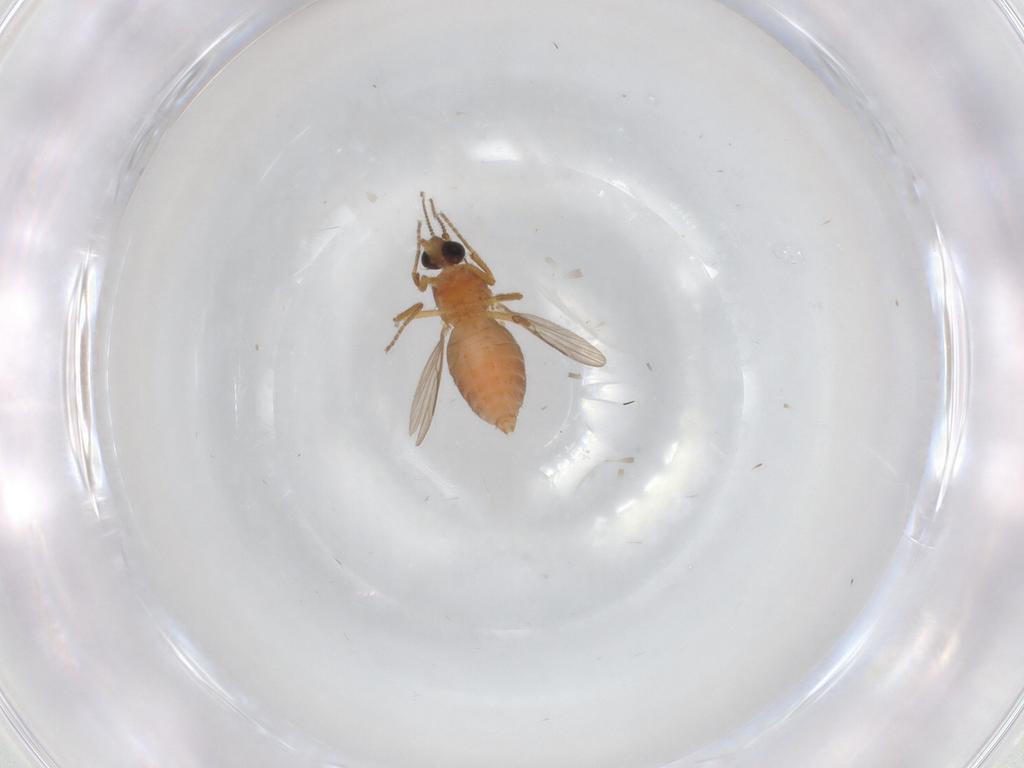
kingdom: Animalia
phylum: Arthropoda
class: Insecta
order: Diptera
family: Ceratopogonidae
